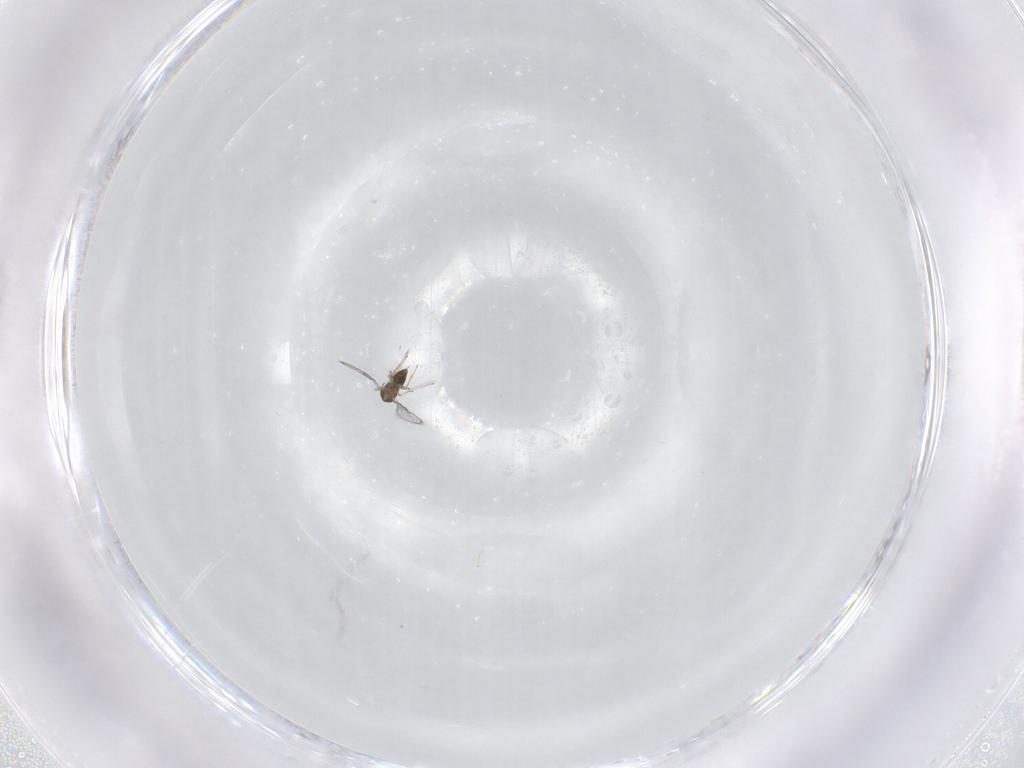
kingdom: Animalia
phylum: Arthropoda
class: Insecta
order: Hymenoptera
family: Trichogrammatidae
